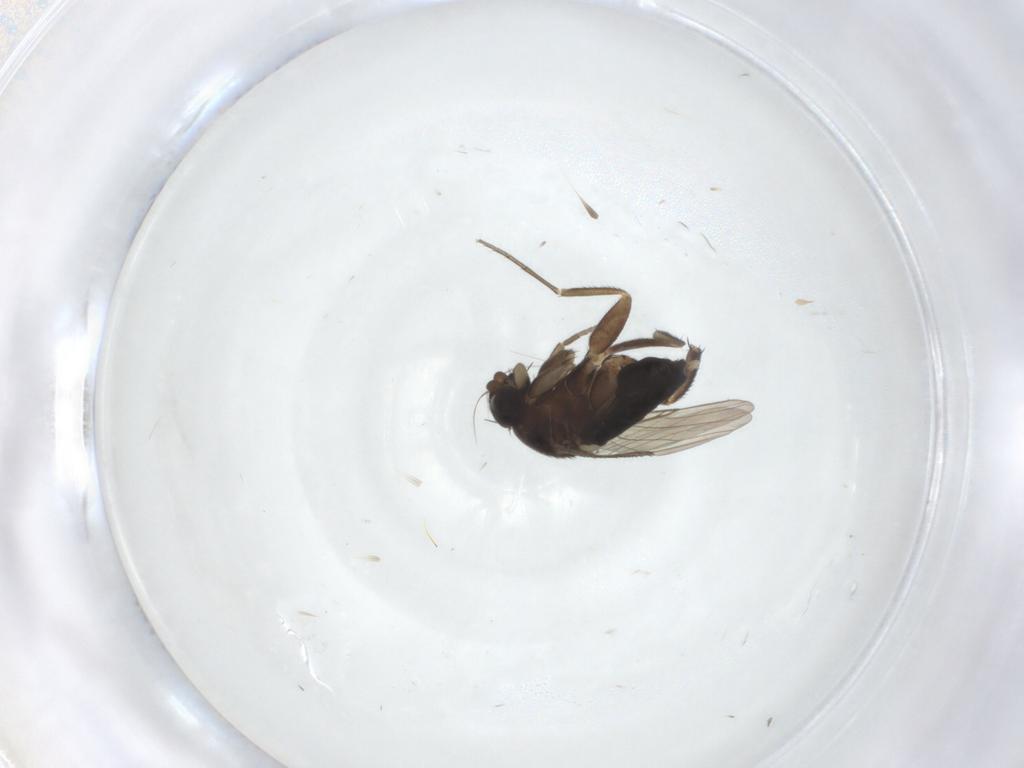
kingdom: Animalia
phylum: Arthropoda
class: Insecta
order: Diptera
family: Phoridae
